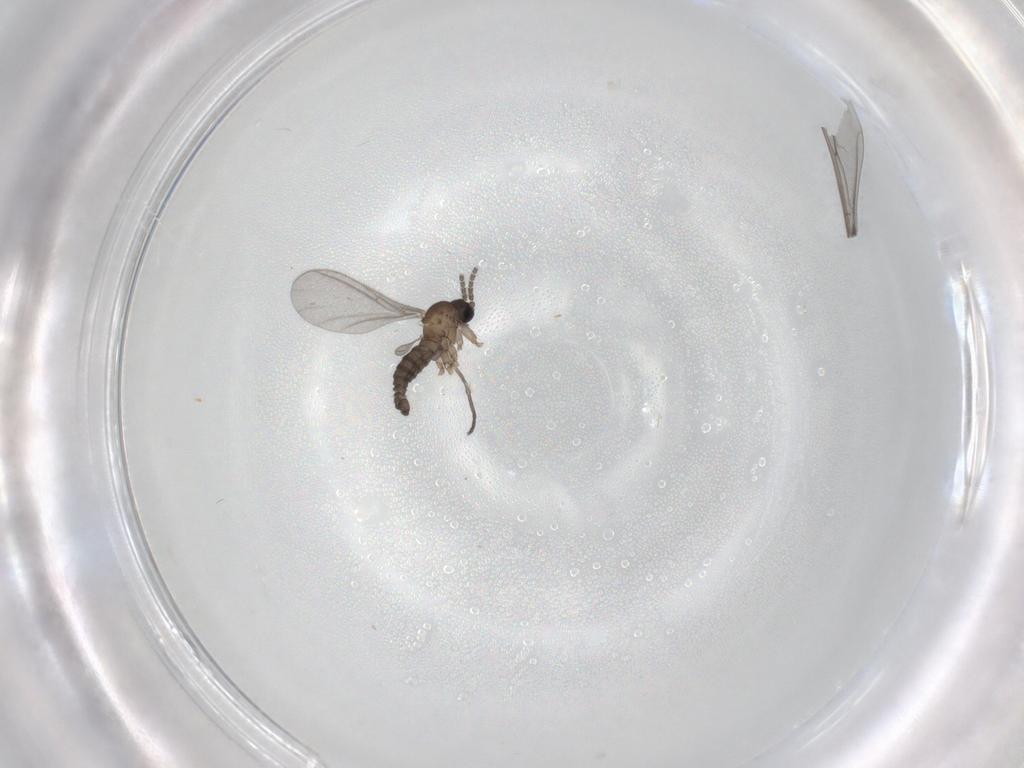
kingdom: Animalia
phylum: Arthropoda
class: Insecta
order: Diptera
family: Sciaridae
